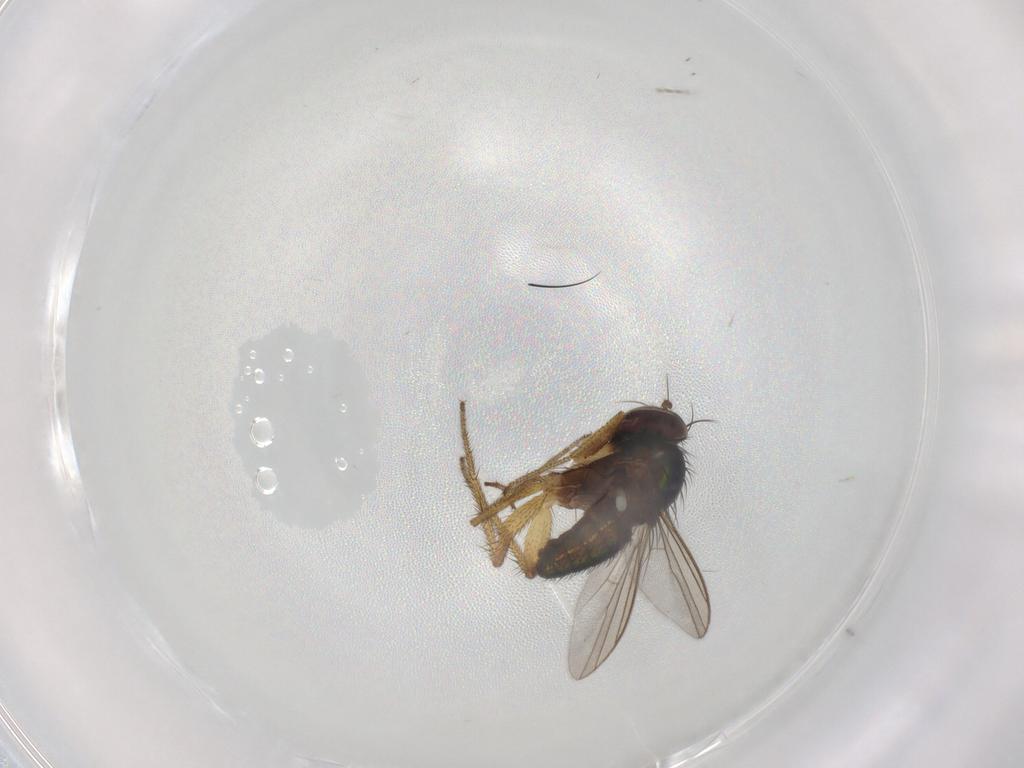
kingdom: Animalia
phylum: Arthropoda
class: Insecta
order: Diptera
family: Dolichopodidae
